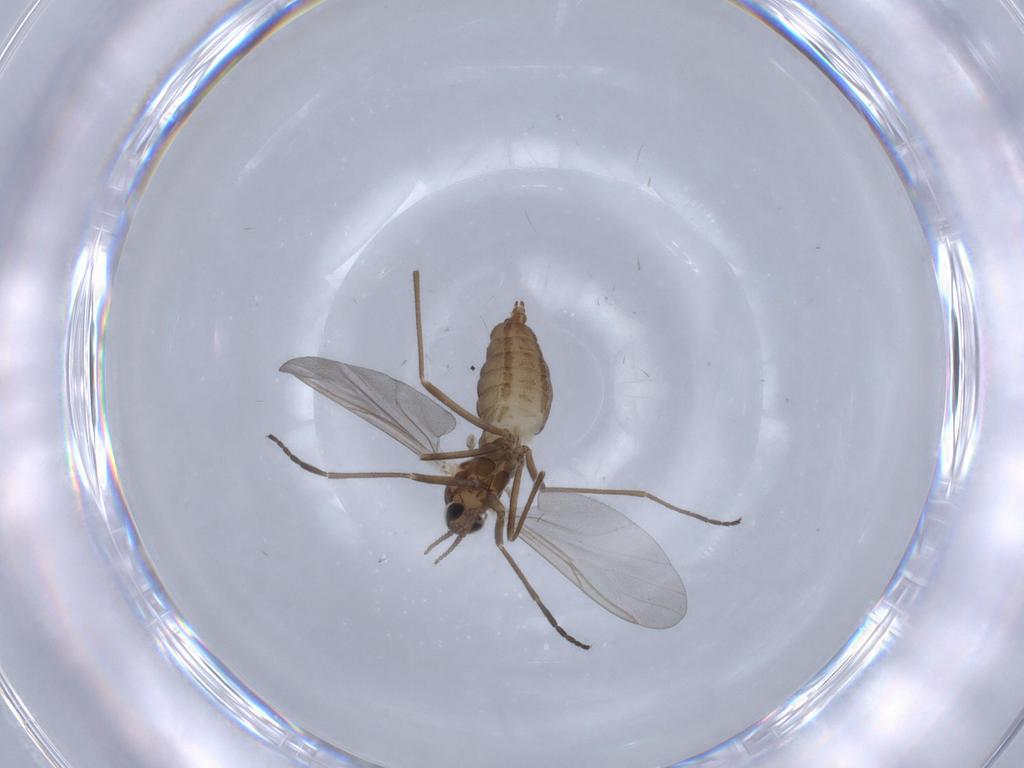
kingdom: Animalia
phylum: Arthropoda
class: Insecta
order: Diptera
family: Cecidomyiidae
